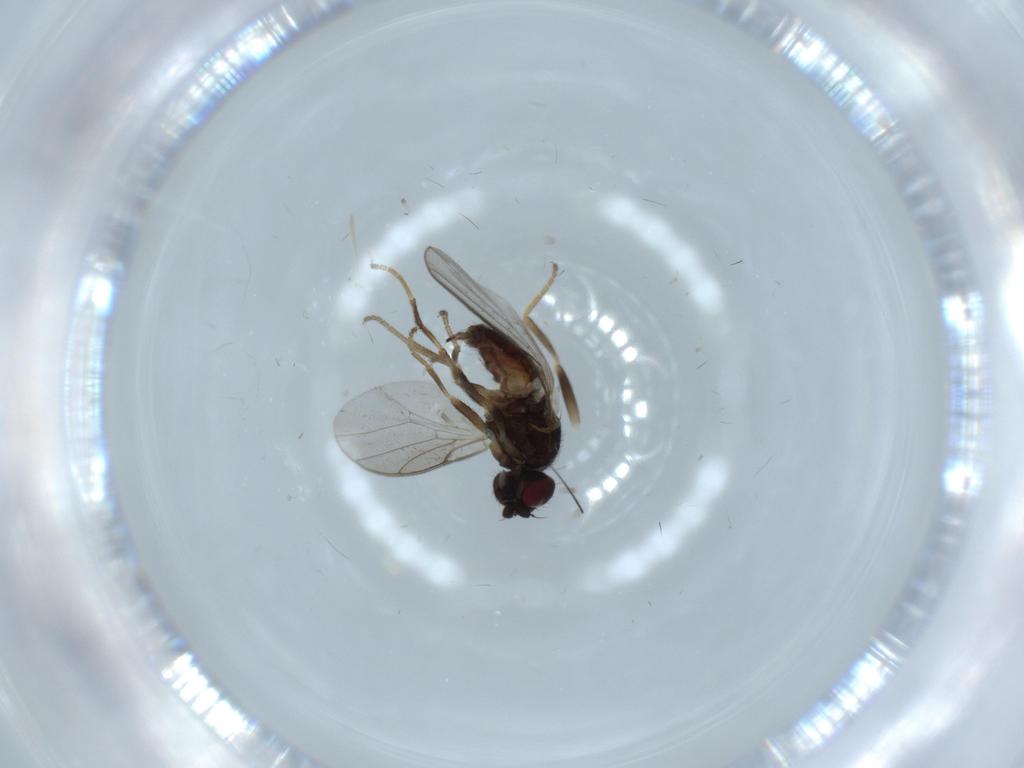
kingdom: Animalia
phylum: Arthropoda
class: Insecta
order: Diptera
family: Chloropidae
